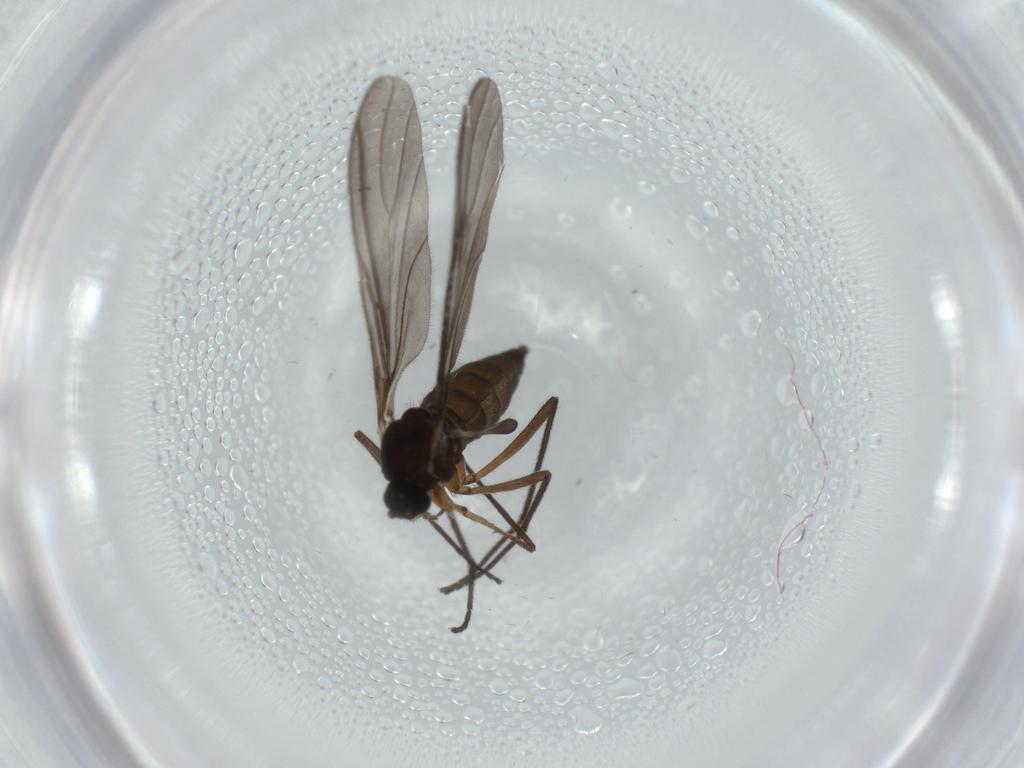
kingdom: Animalia
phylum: Arthropoda
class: Insecta
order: Diptera
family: Sciaridae
